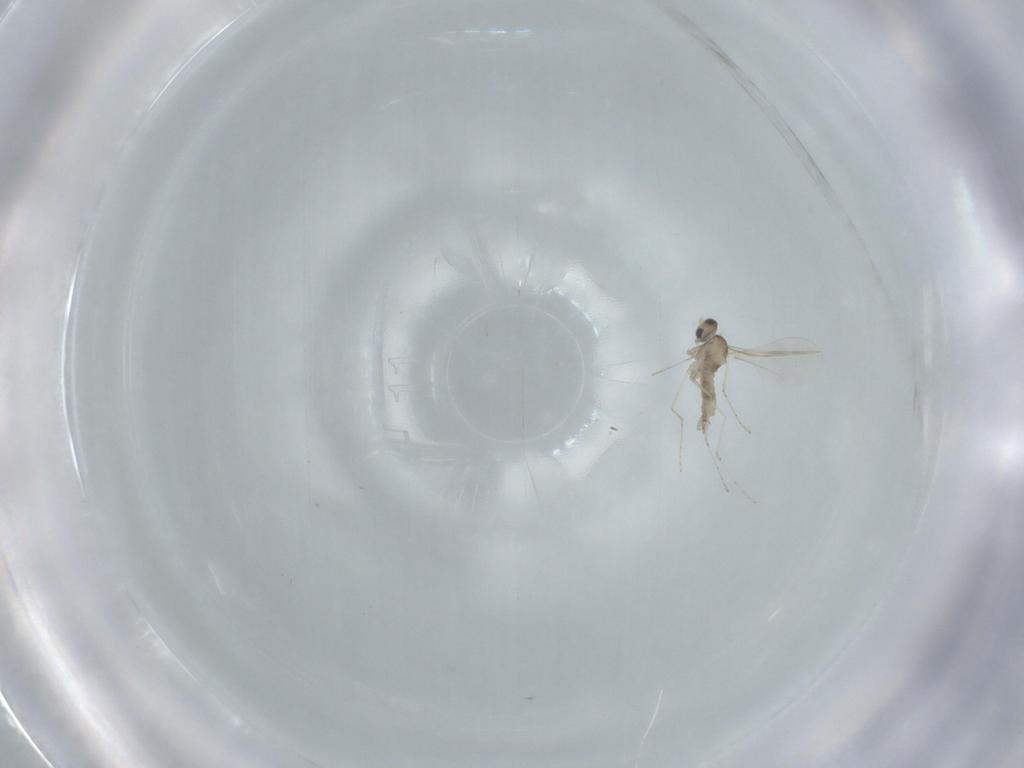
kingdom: Animalia
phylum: Arthropoda
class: Insecta
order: Diptera
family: Cecidomyiidae
